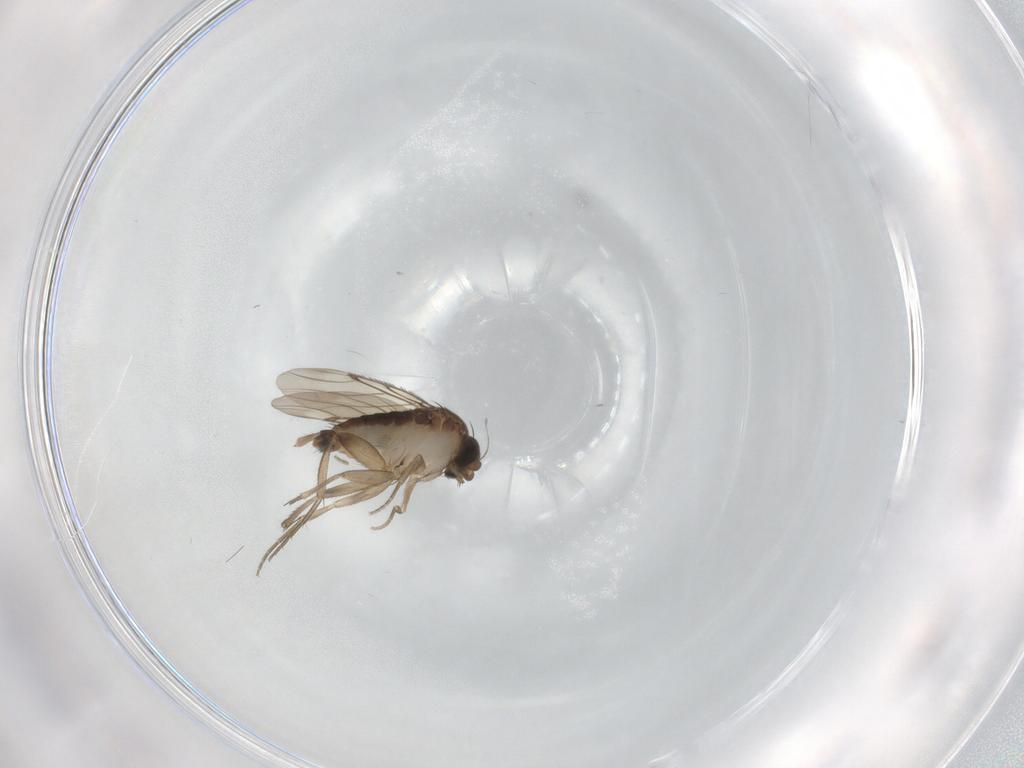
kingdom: Animalia
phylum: Arthropoda
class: Insecta
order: Diptera
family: Phoridae
